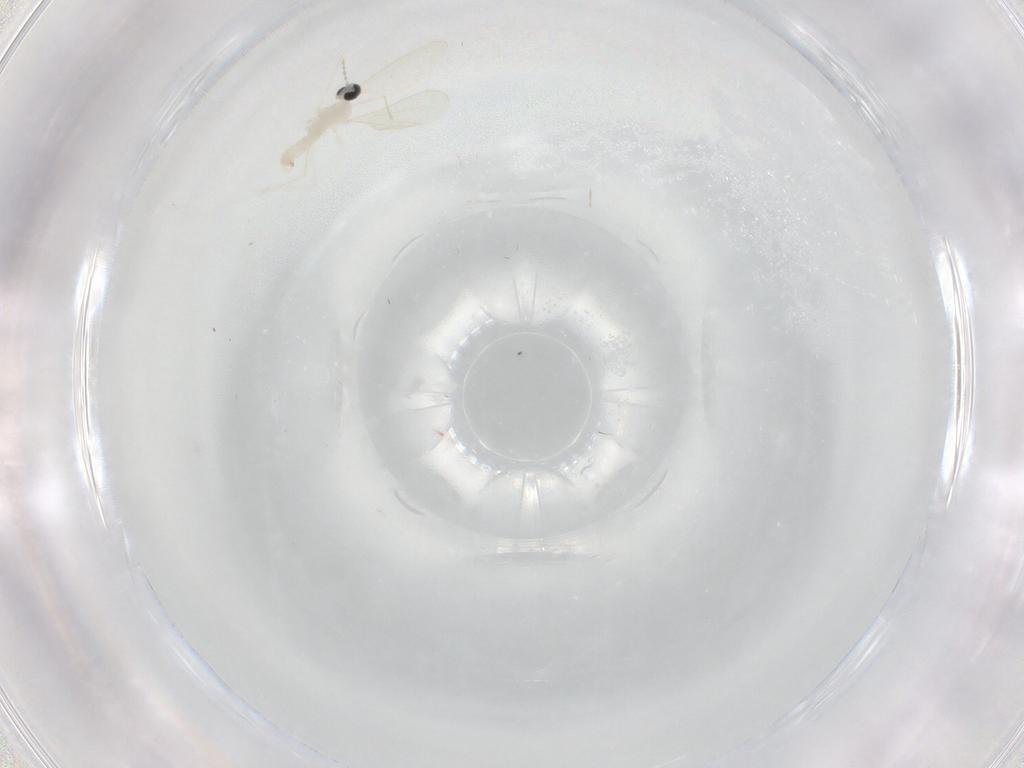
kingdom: Animalia
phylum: Arthropoda
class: Insecta
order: Diptera
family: Cecidomyiidae
